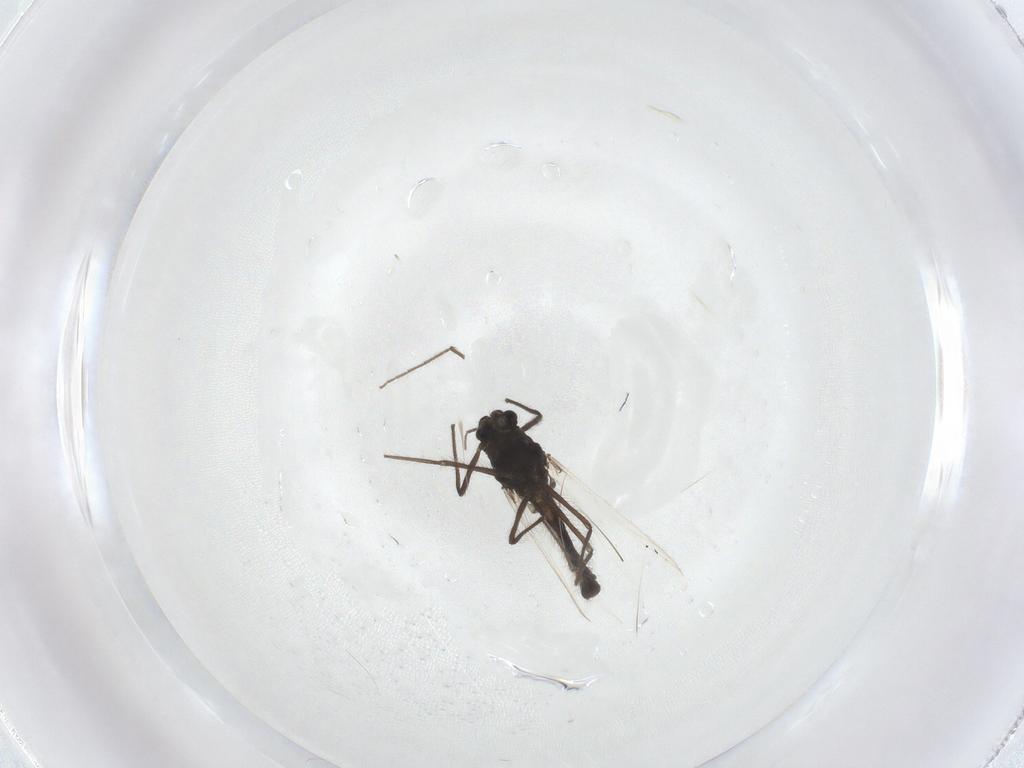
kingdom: Animalia
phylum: Arthropoda
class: Insecta
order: Diptera
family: Chironomidae
